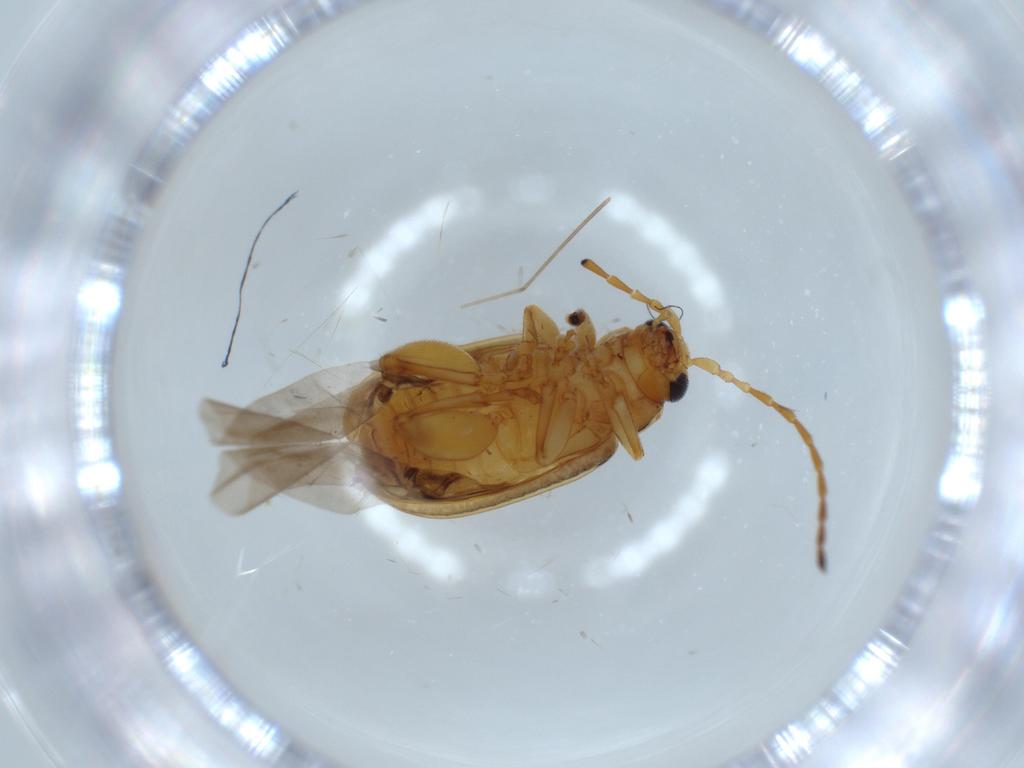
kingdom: Animalia
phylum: Arthropoda
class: Insecta
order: Coleoptera
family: Chrysomelidae
